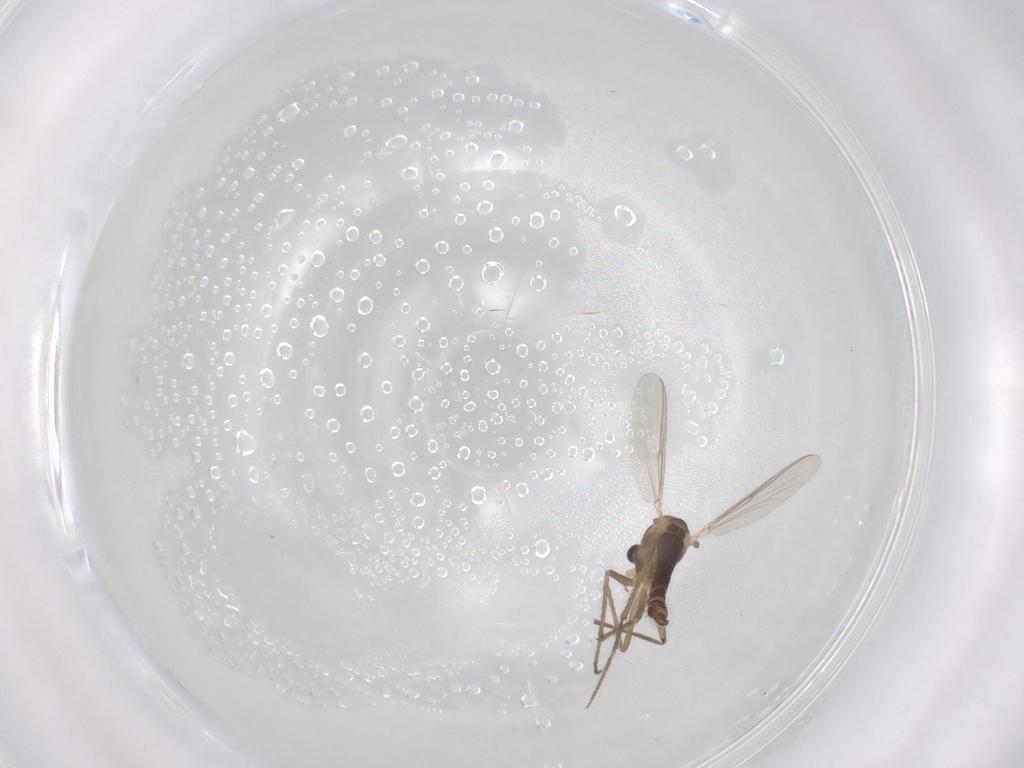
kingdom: Animalia
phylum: Arthropoda
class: Insecta
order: Diptera
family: Chironomidae
